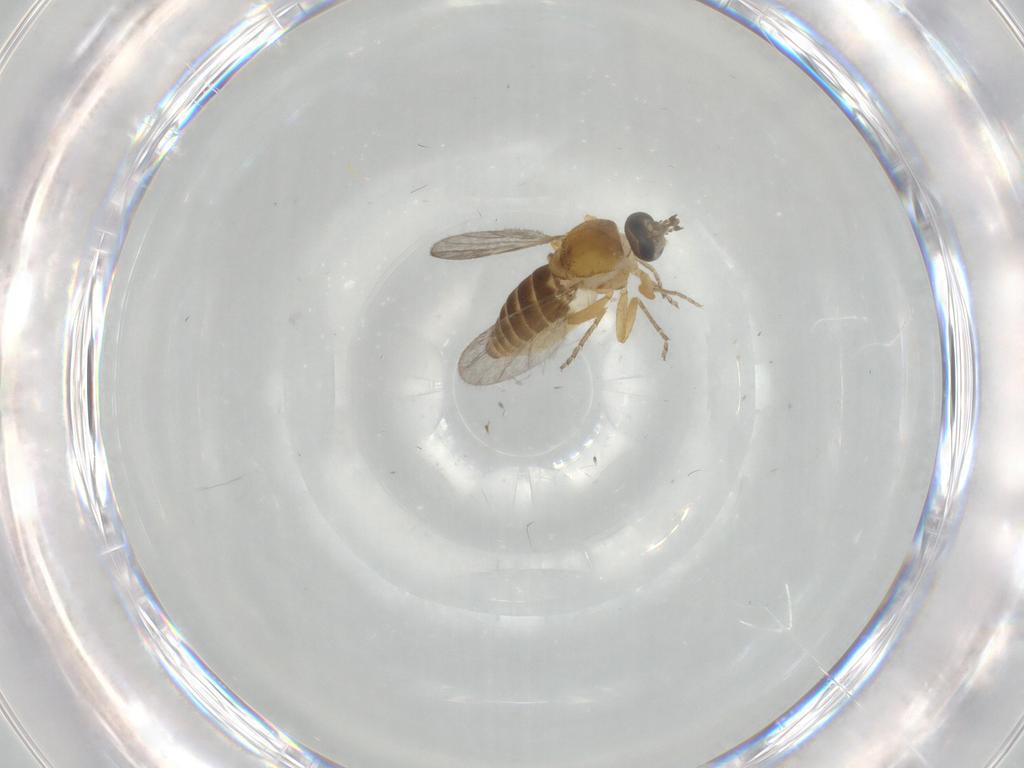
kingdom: Animalia
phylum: Arthropoda
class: Insecta
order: Diptera
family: Ceratopogonidae
